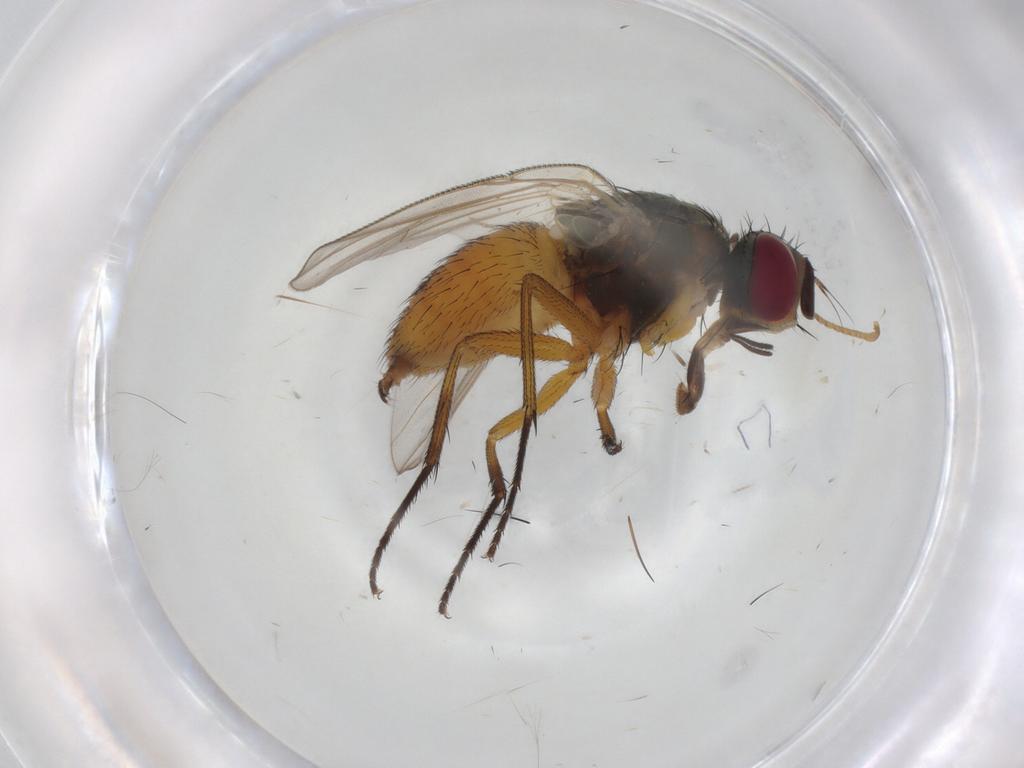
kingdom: Animalia
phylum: Arthropoda
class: Insecta
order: Diptera
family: Muscidae
